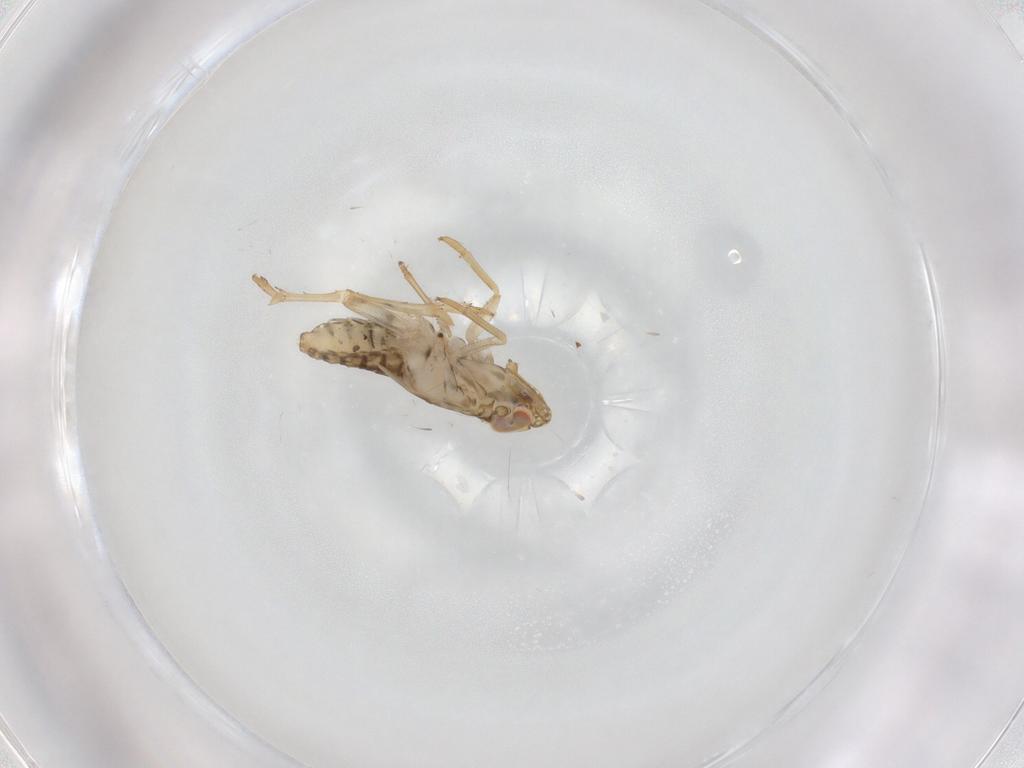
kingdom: Animalia
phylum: Arthropoda
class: Insecta
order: Hemiptera
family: Delphacidae
